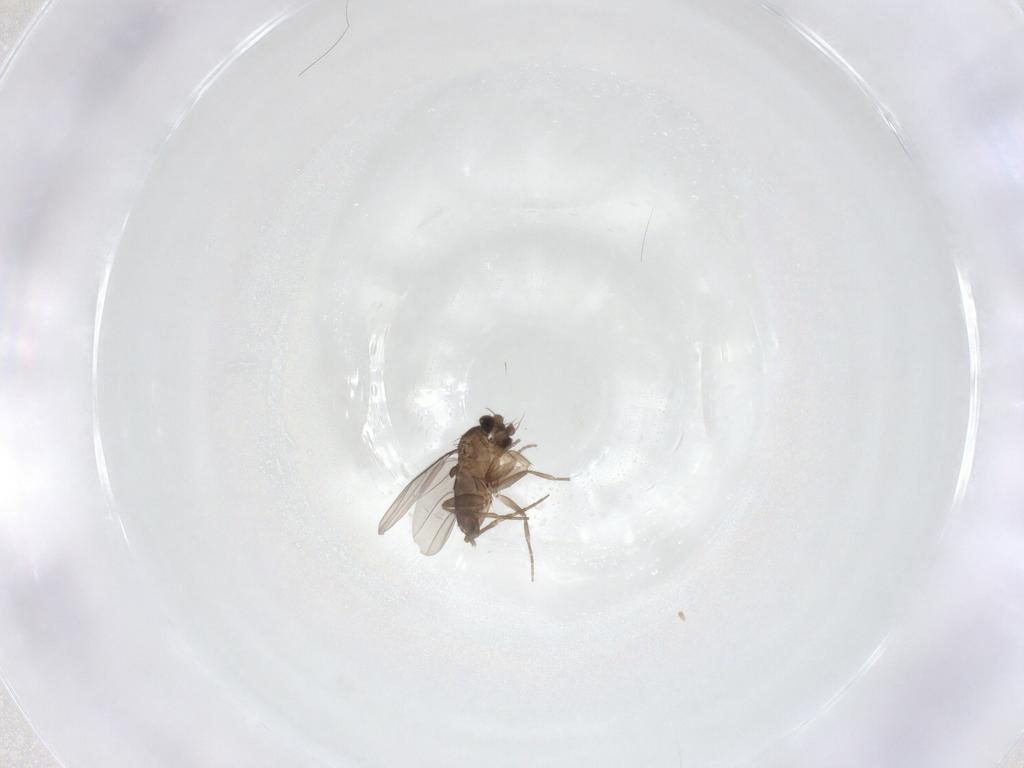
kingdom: Animalia
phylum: Arthropoda
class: Insecta
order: Diptera
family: Phoridae
